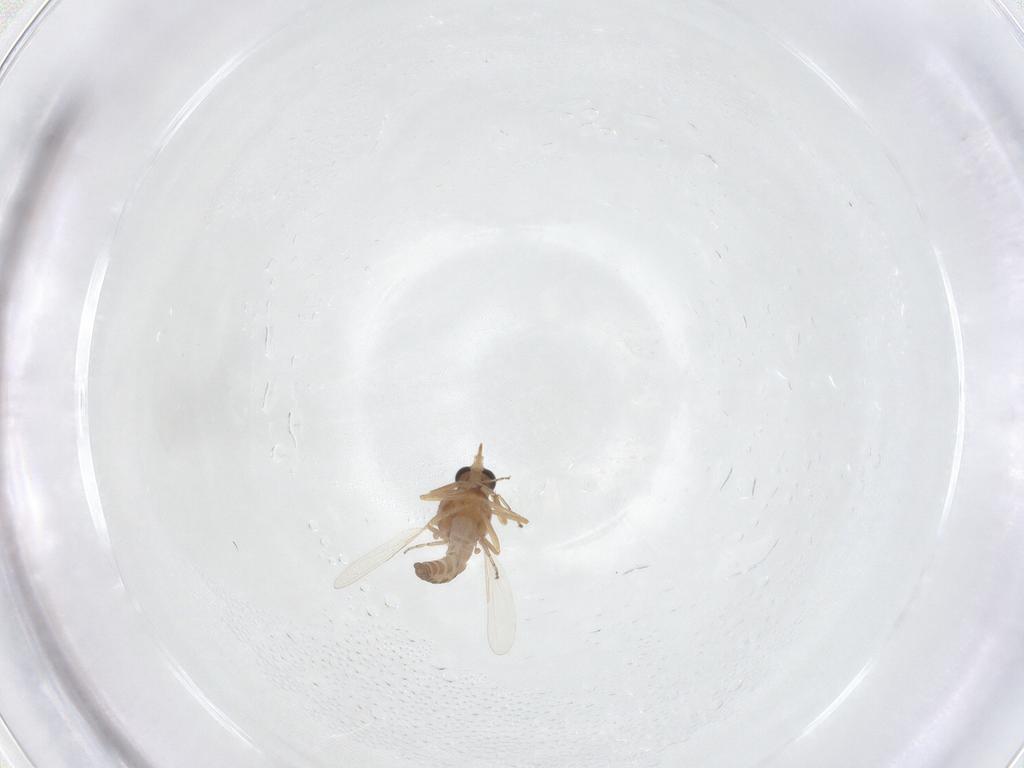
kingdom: Animalia
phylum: Arthropoda
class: Insecta
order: Diptera
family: Ceratopogonidae
